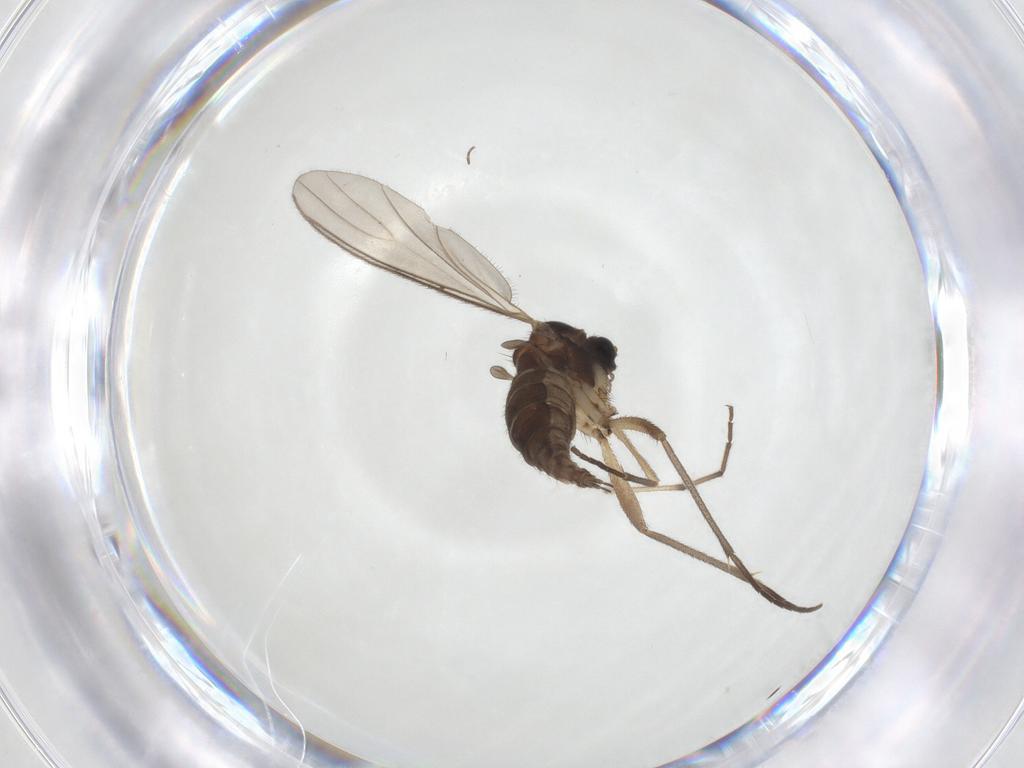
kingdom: Animalia
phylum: Arthropoda
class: Insecta
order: Diptera
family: Sciaridae
